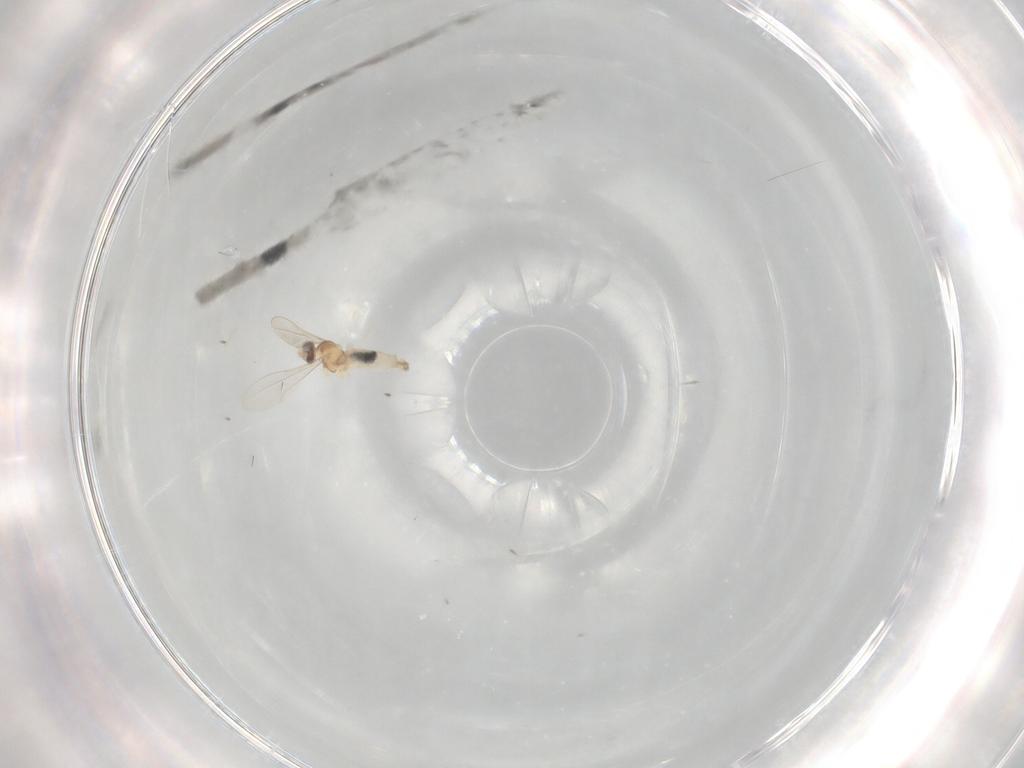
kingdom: Animalia
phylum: Arthropoda
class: Insecta
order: Diptera
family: Cecidomyiidae
